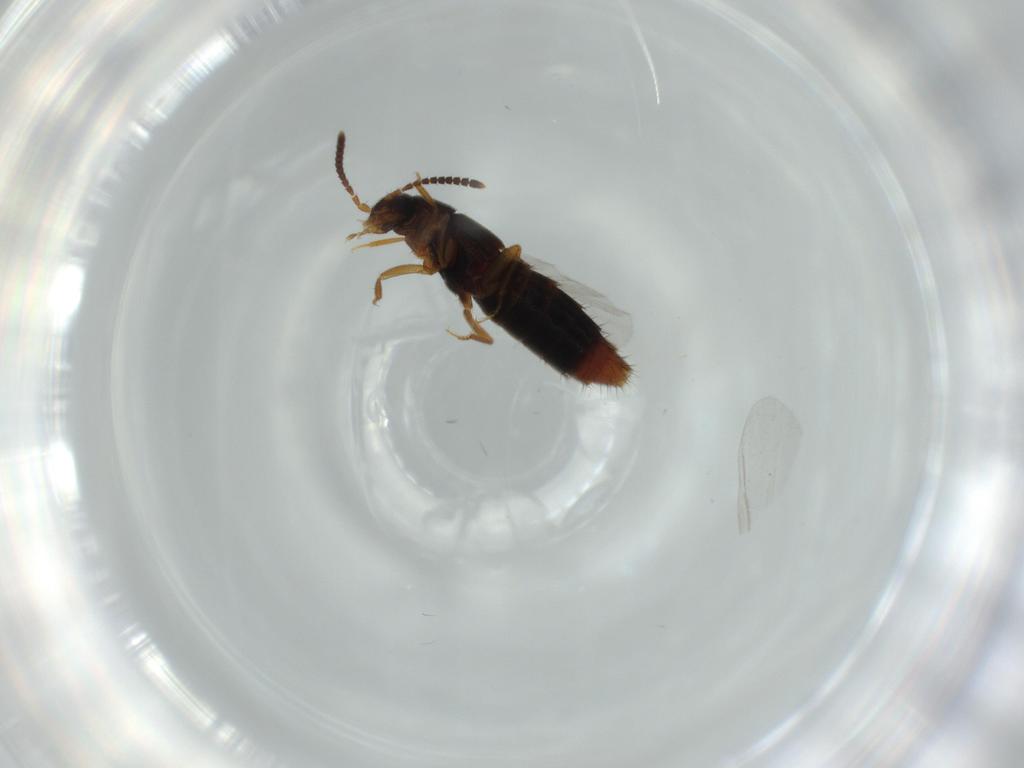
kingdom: Animalia
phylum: Arthropoda
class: Insecta
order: Coleoptera
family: Staphylinidae
